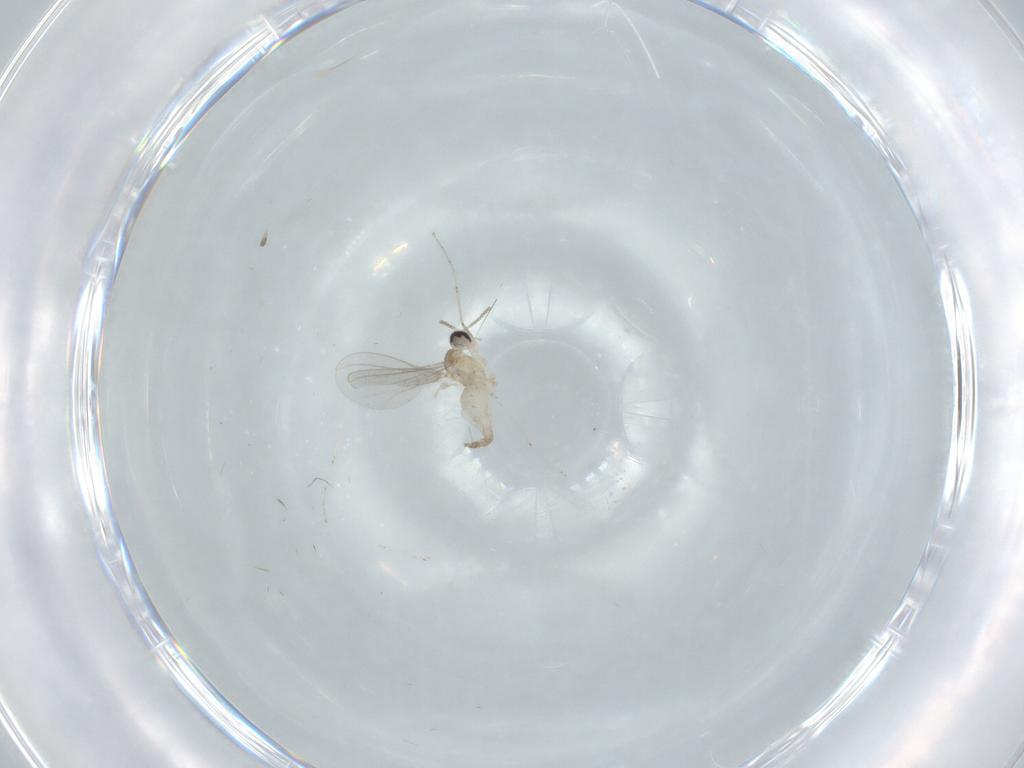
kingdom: Animalia
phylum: Arthropoda
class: Insecta
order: Diptera
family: Cecidomyiidae
